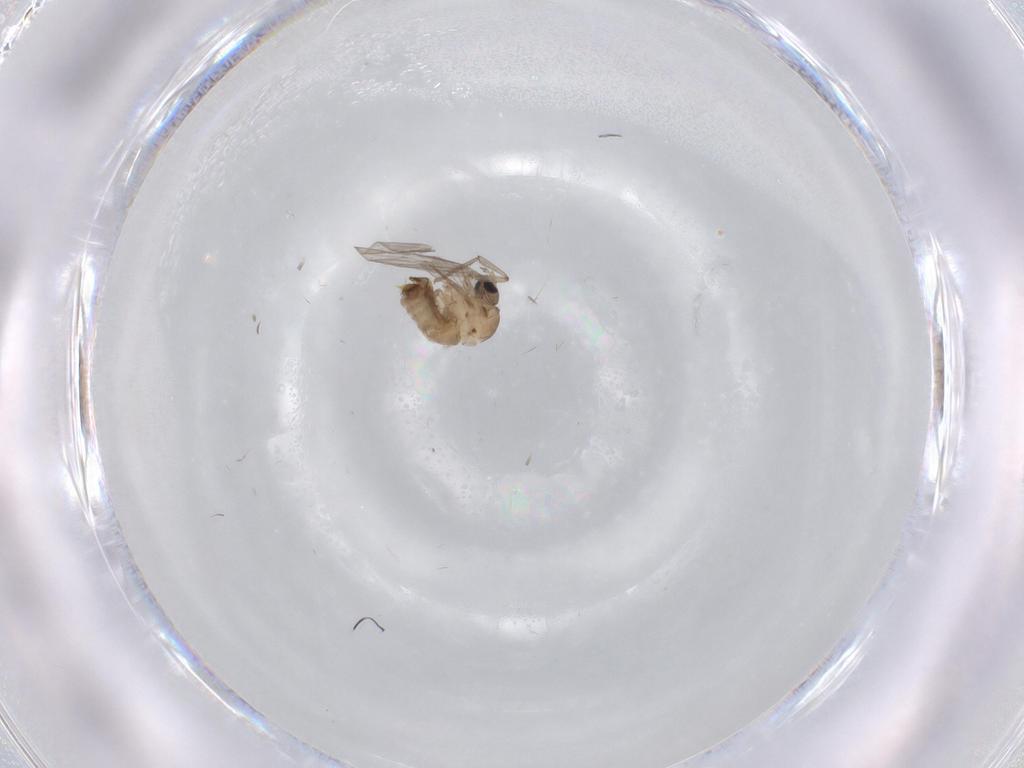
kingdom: Animalia
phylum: Arthropoda
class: Insecta
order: Diptera
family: Psychodidae
